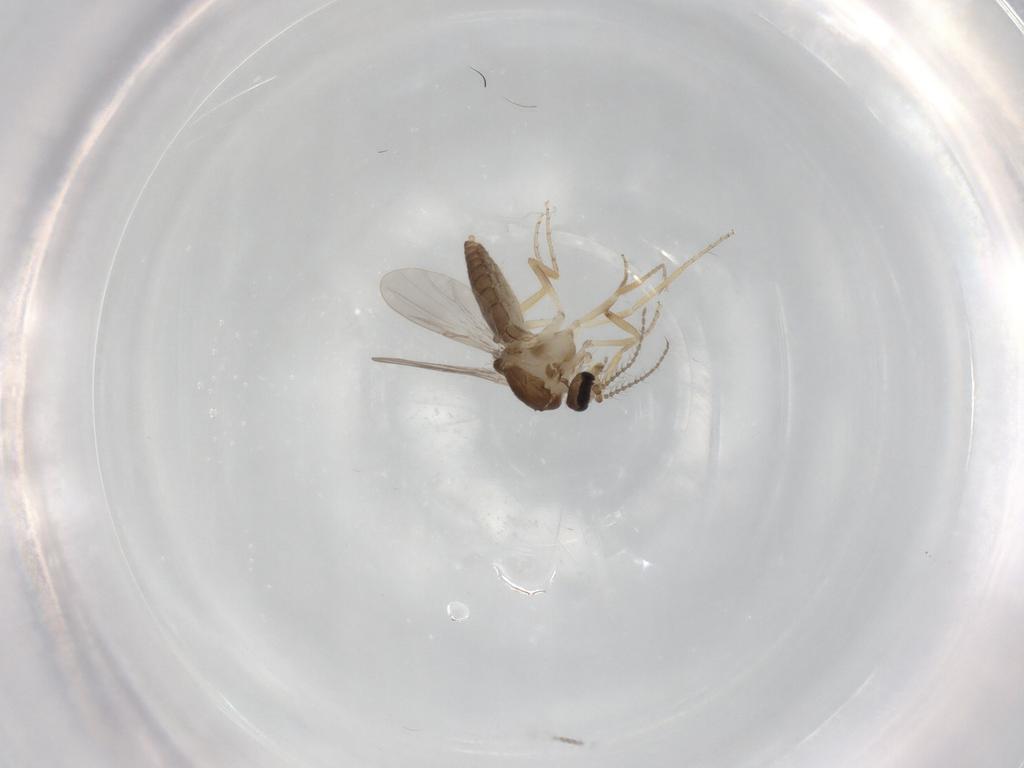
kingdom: Animalia
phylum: Arthropoda
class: Insecta
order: Diptera
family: Ceratopogonidae
